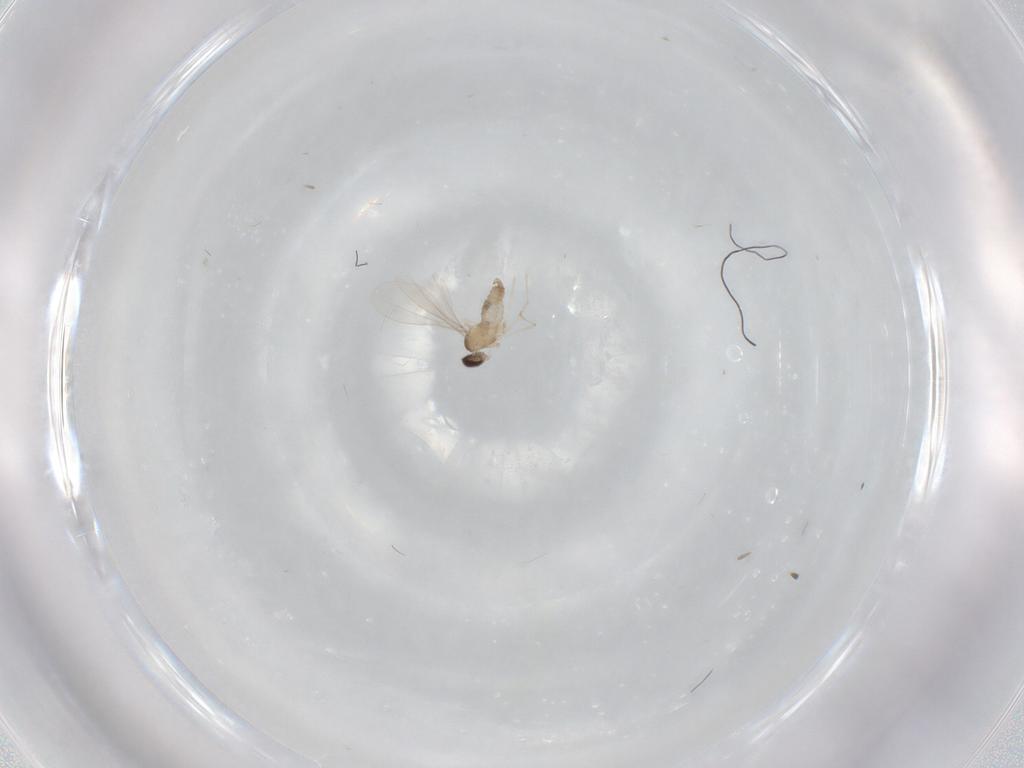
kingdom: Animalia
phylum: Arthropoda
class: Insecta
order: Diptera
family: Cecidomyiidae
